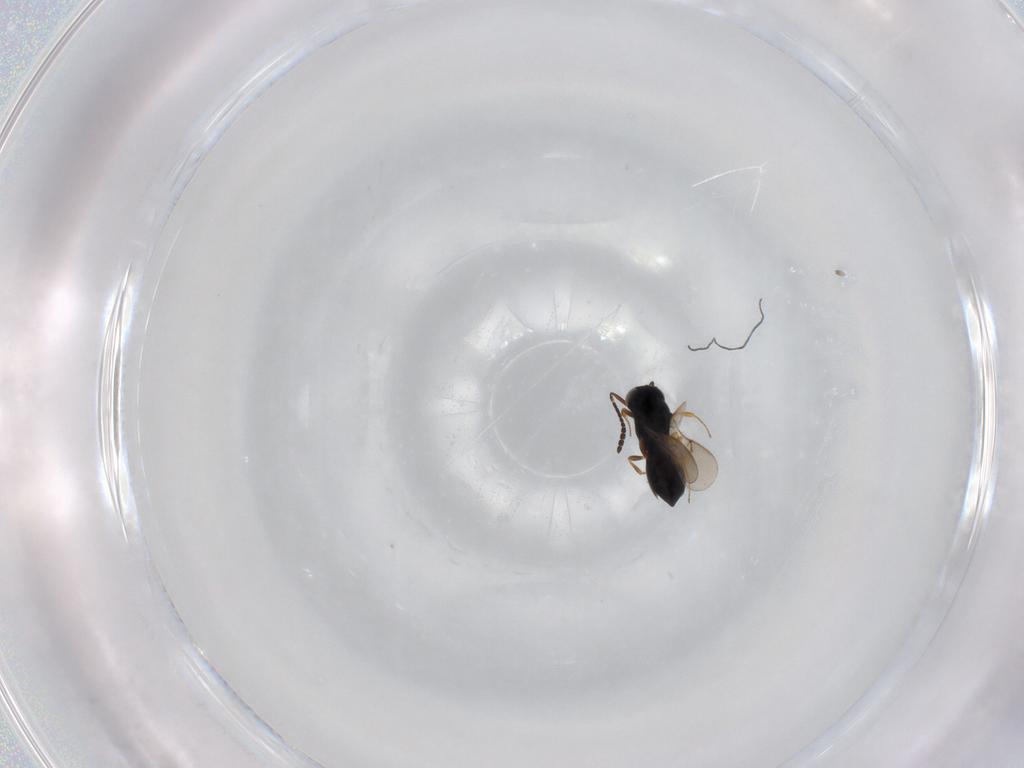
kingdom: Animalia
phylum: Arthropoda
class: Insecta
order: Hymenoptera
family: Scelionidae
